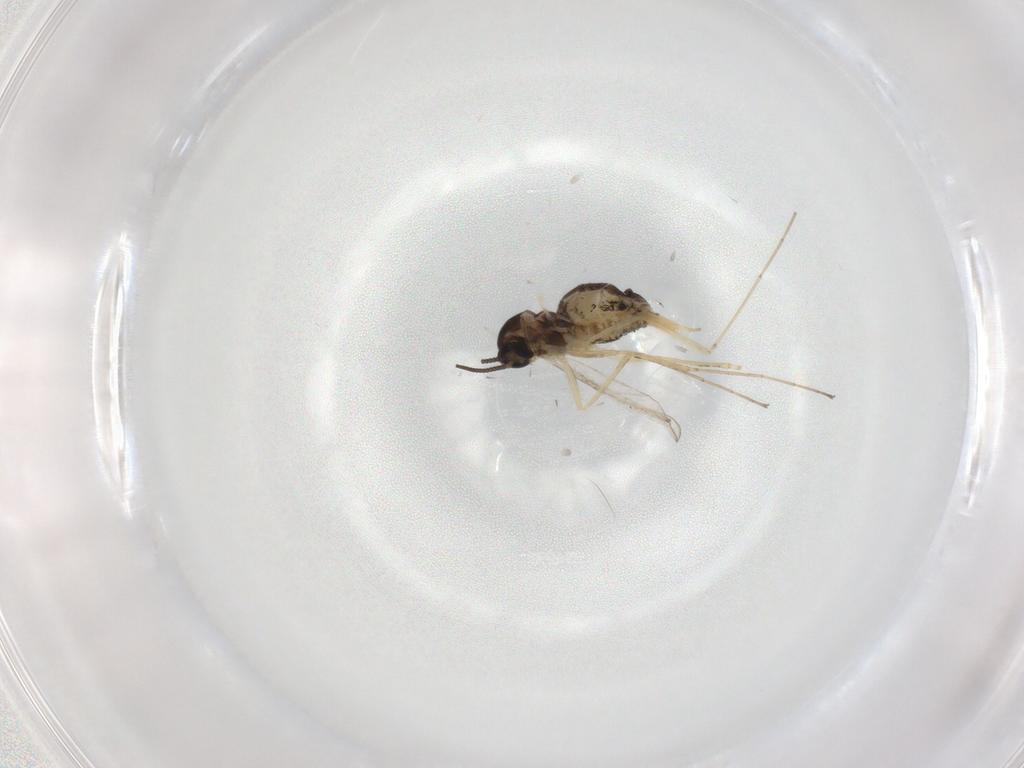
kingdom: Animalia
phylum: Arthropoda
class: Insecta
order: Diptera
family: Cecidomyiidae
